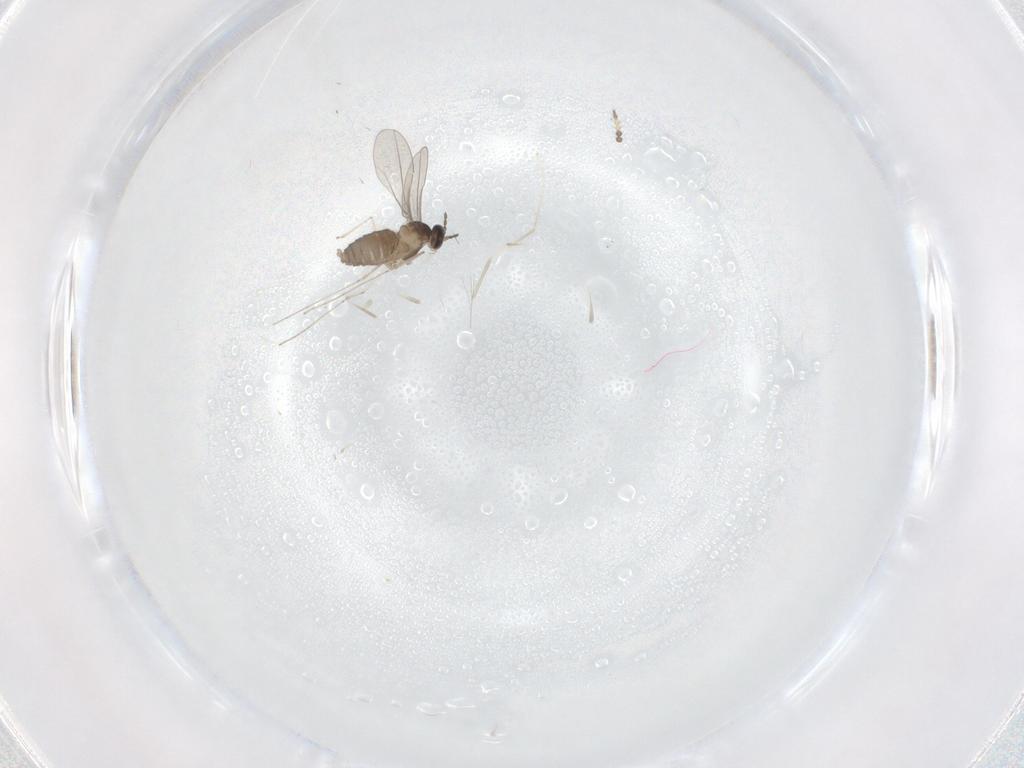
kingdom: Animalia
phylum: Arthropoda
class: Insecta
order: Diptera
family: Limoniidae
